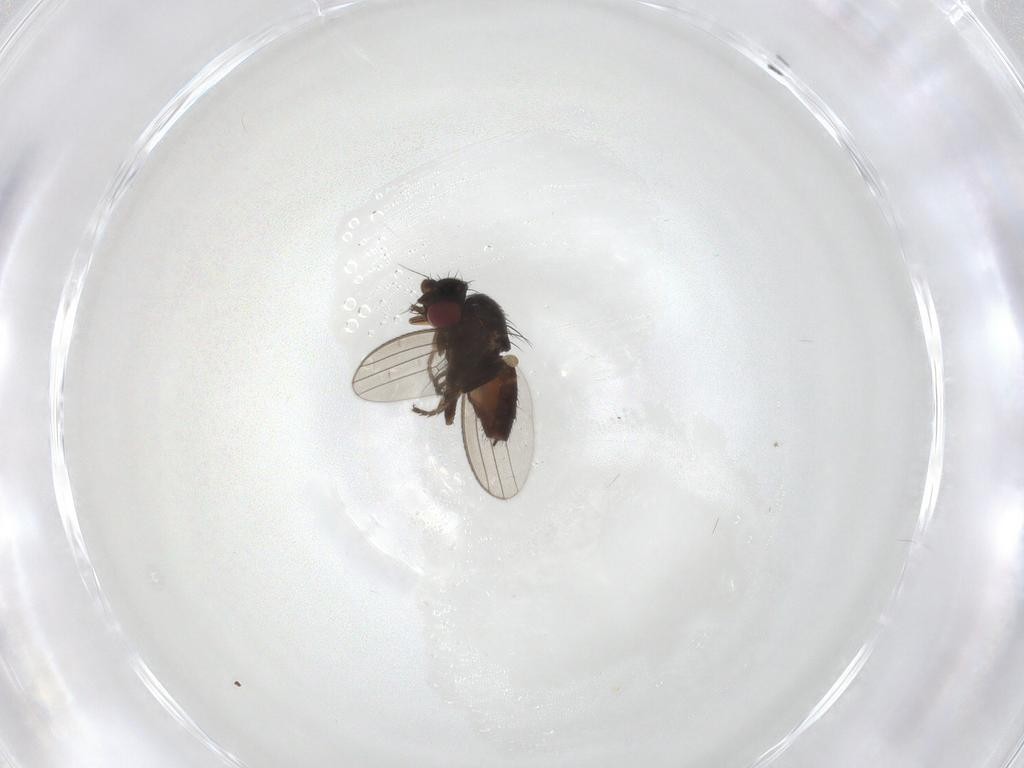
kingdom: Animalia
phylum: Arthropoda
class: Insecta
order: Diptera
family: Milichiidae
